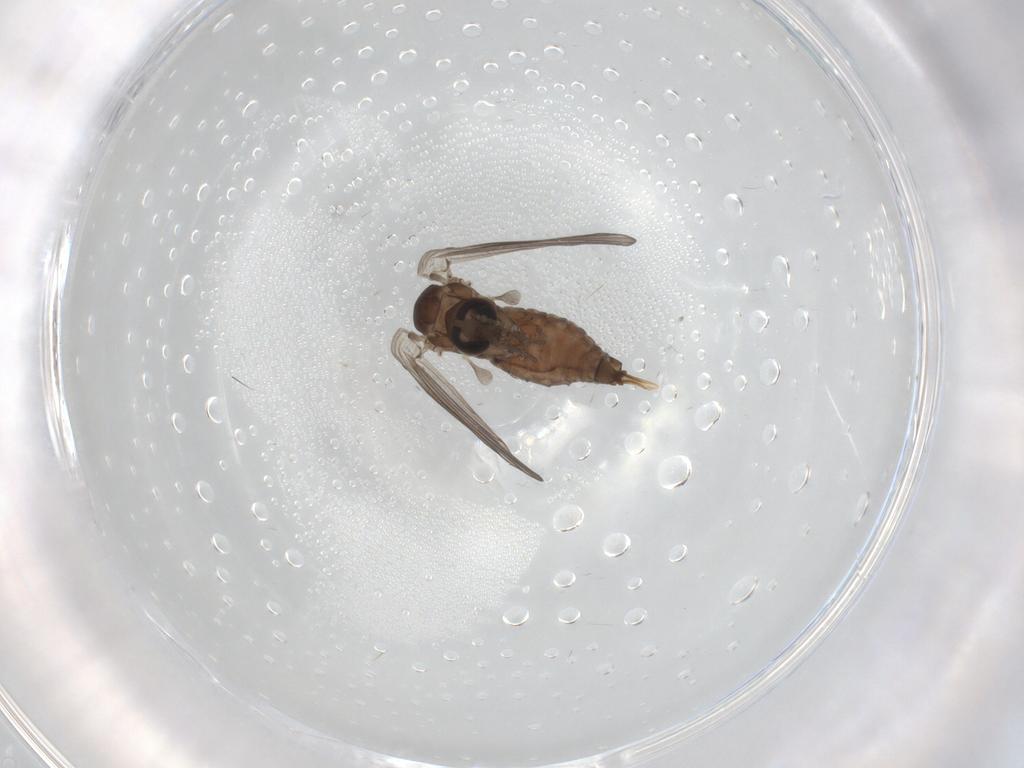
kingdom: Animalia
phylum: Arthropoda
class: Insecta
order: Diptera
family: Psychodidae
